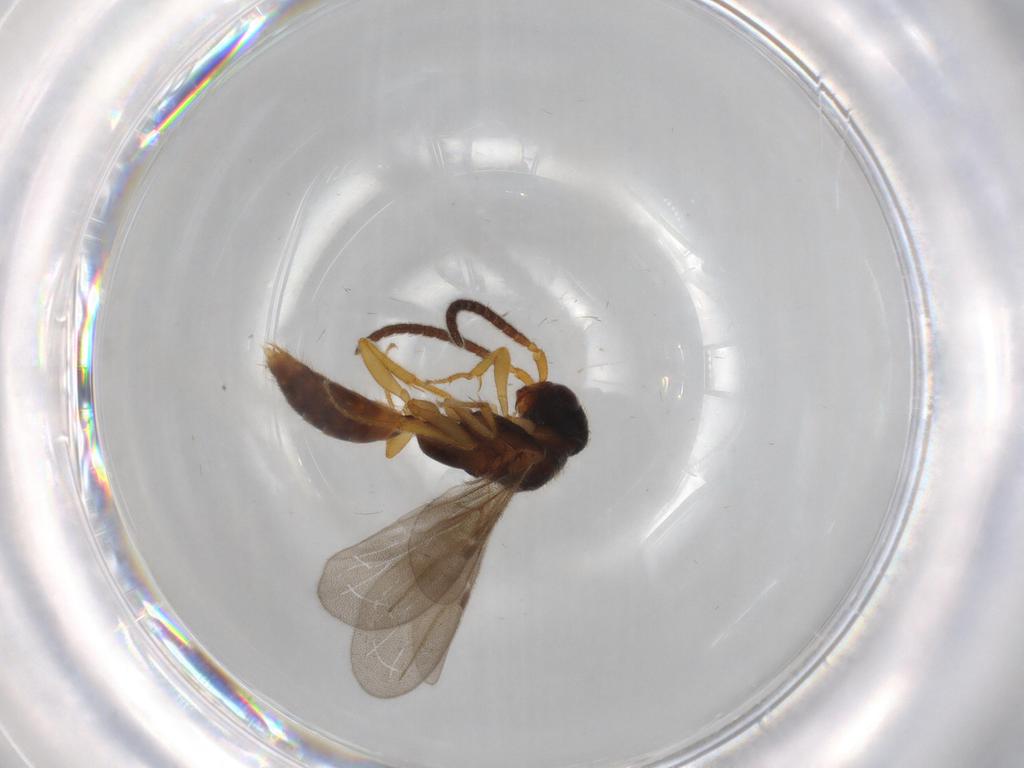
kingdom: Animalia
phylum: Arthropoda
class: Insecta
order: Hymenoptera
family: Bethylidae
